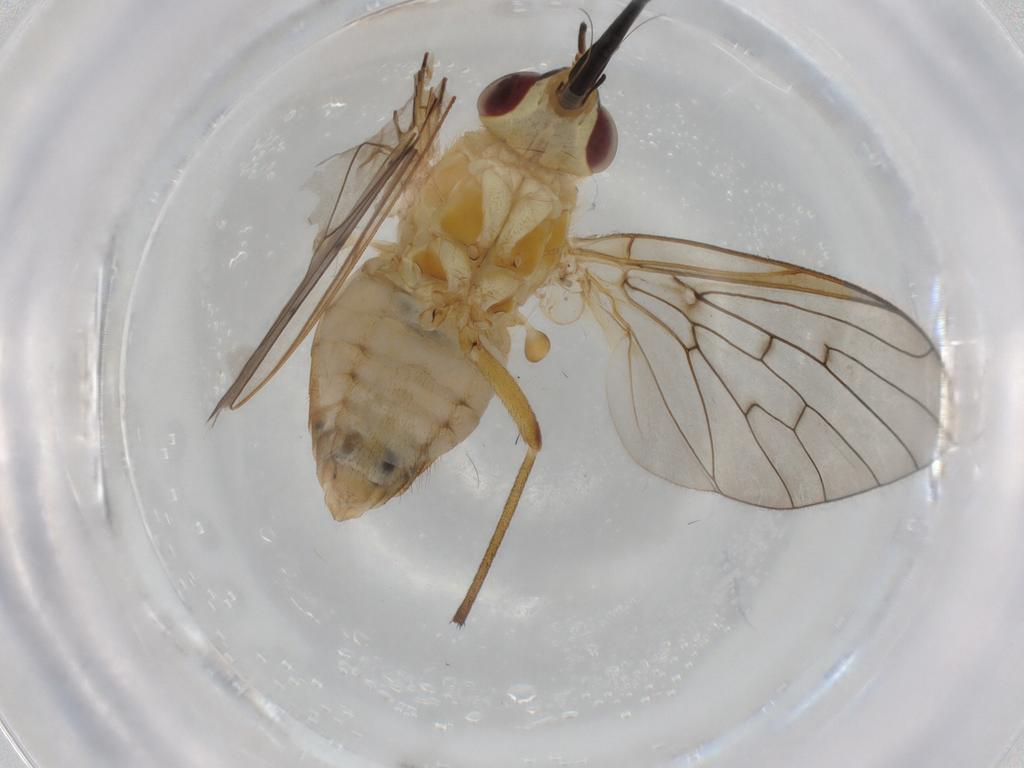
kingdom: Animalia
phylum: Arthropoda
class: Insecta
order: Diptera
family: Bombyliidae
